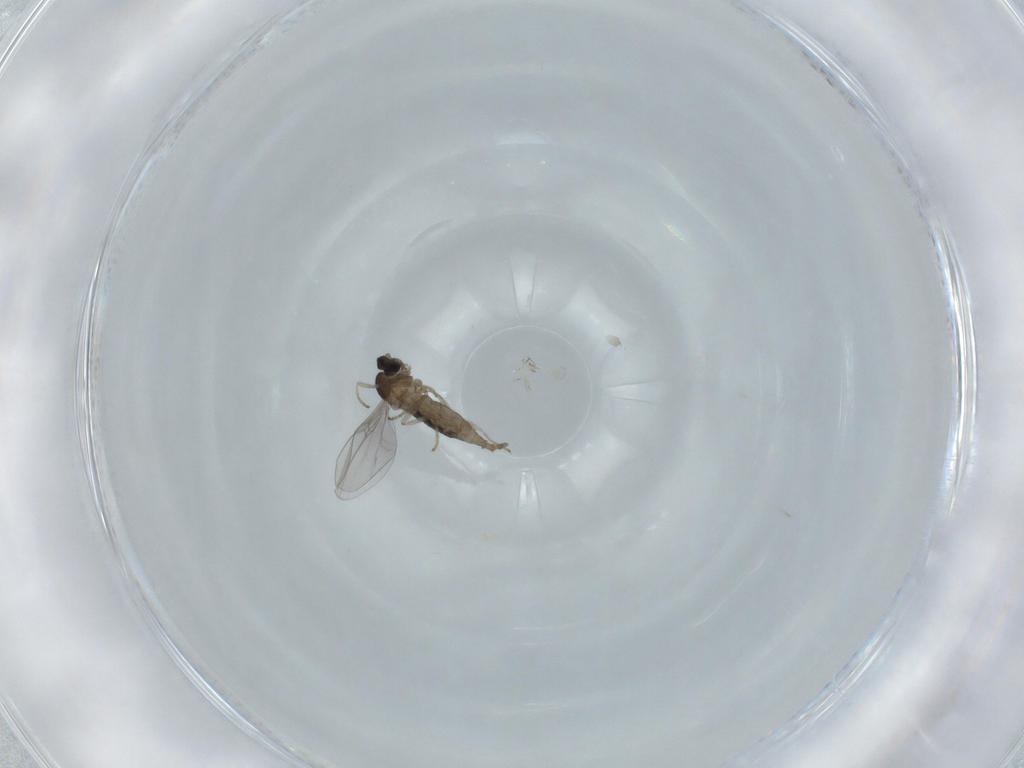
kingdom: Animalia
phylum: Arthropoda
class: Insecta
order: Diptera
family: Cecidomyiidae
